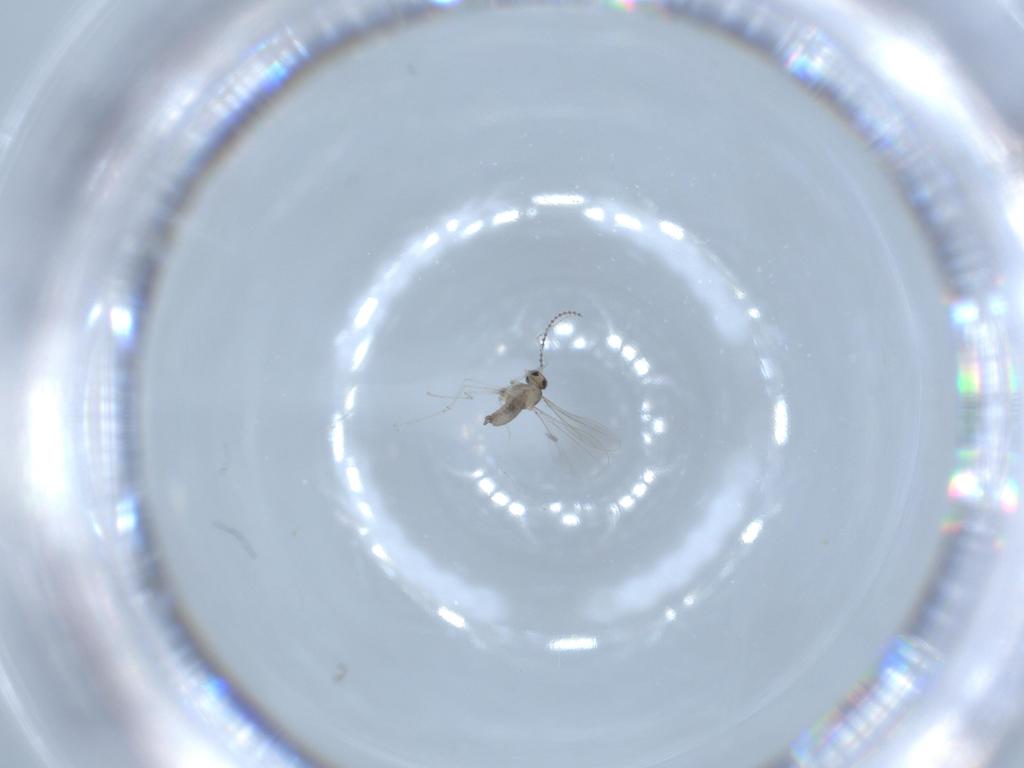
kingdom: Animalia
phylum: Arthropoda
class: Insecta
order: Diptera
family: Cecidomyiidae
